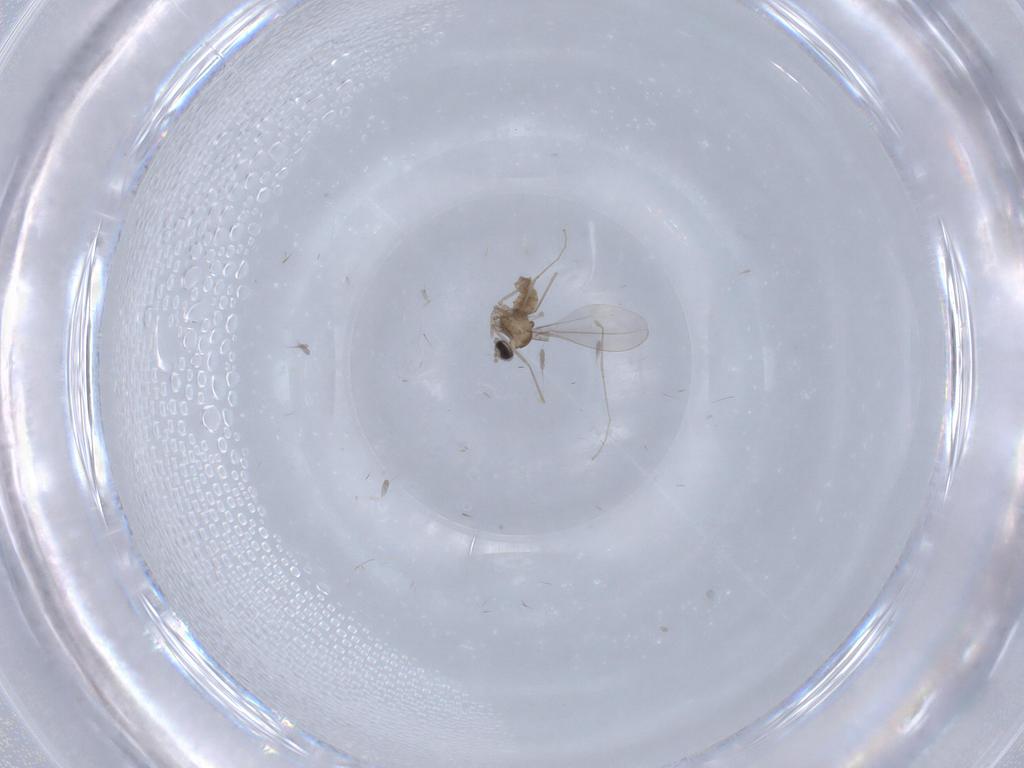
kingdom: Animalia
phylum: Arthropoda
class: Insecta
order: Diptera
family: Cecidomyiidae
